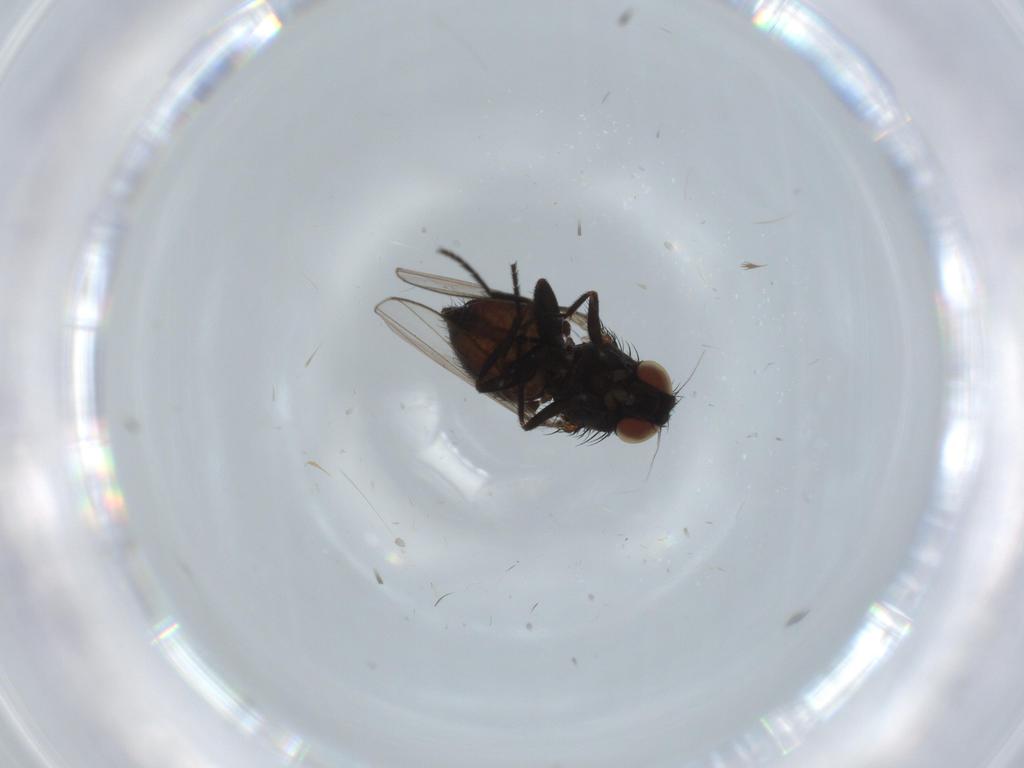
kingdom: Animalia
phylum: Arthropoda
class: Insecta
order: Diptera
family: Milichiidae
